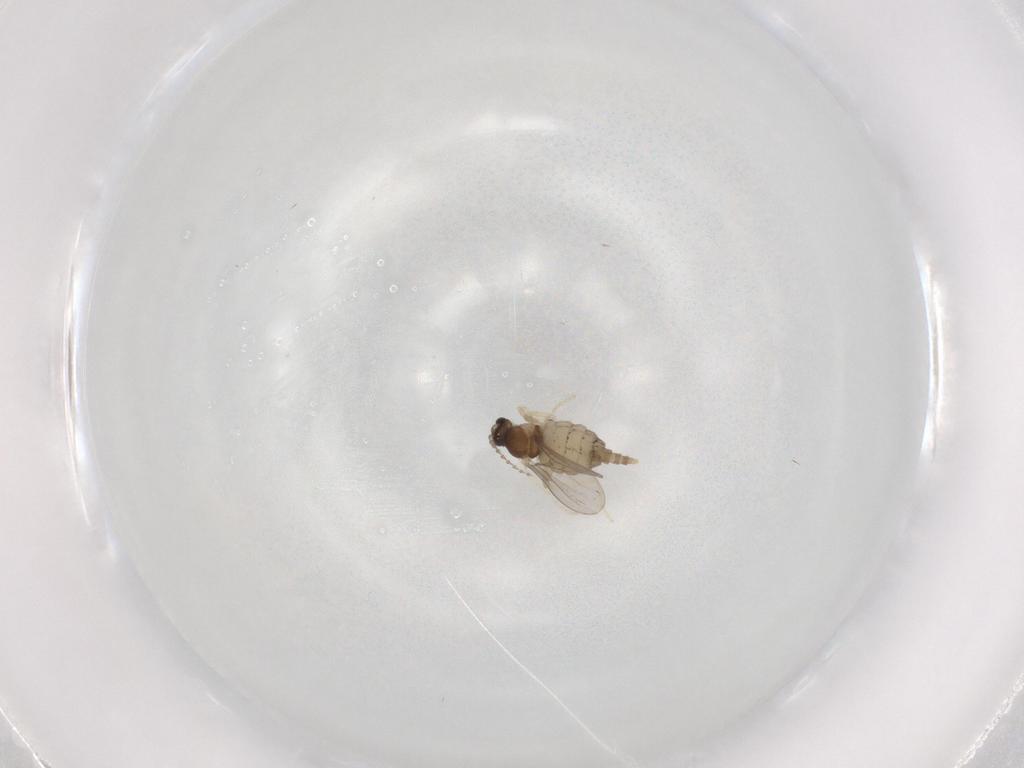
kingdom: Animalia
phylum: Arthropoda
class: Insecta
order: Diptera
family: Cecidomyiidae
